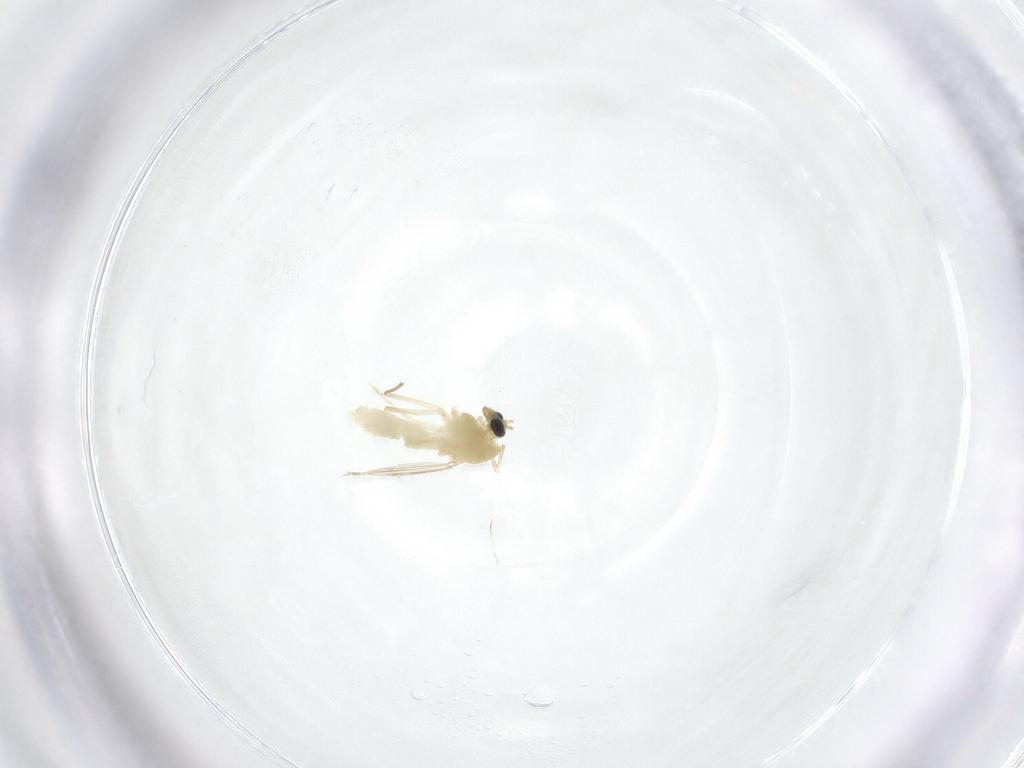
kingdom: Animalia
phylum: Arthropoda
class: Insecta
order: Diptera
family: Chironomidae
